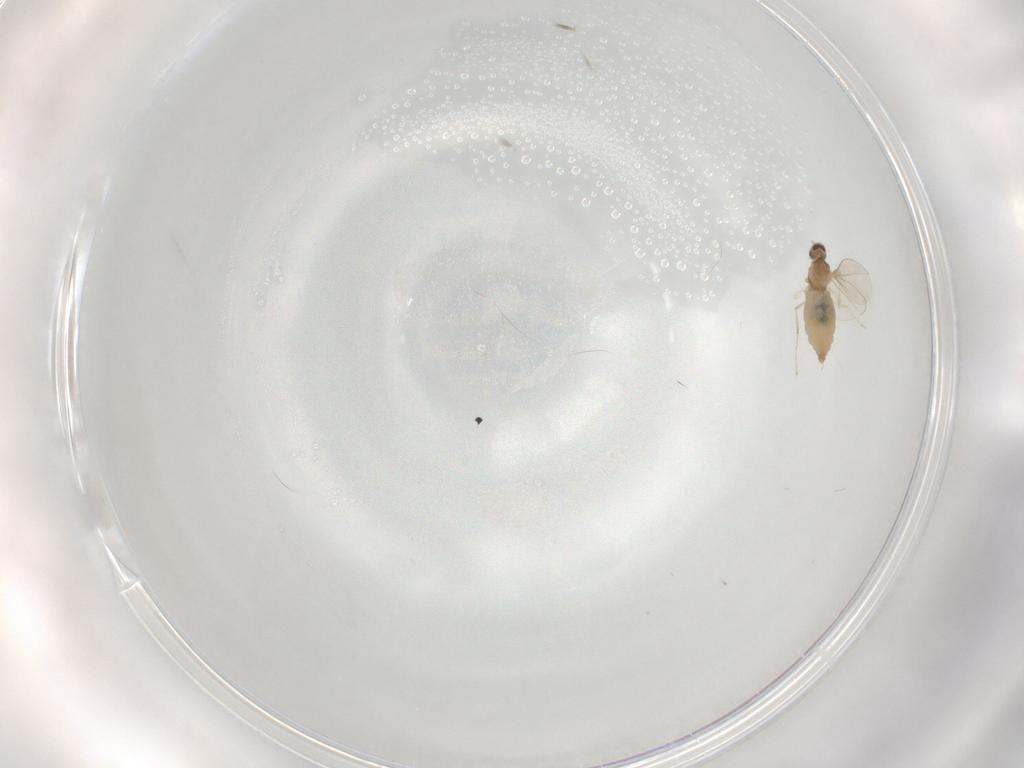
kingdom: Animalia
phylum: Arthropoda
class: Insecta
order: Diptera
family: Cecidomyiidae
